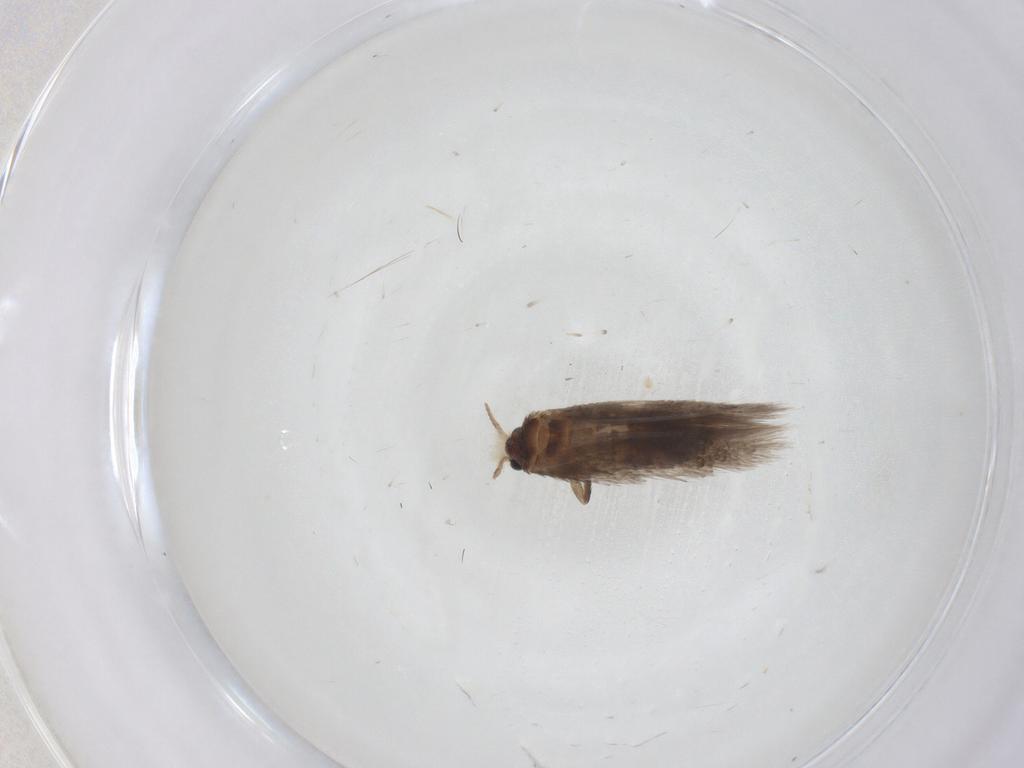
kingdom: Animalia
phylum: Arthropoda
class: Insecta
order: Lepidoptera
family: Nepticulidae
